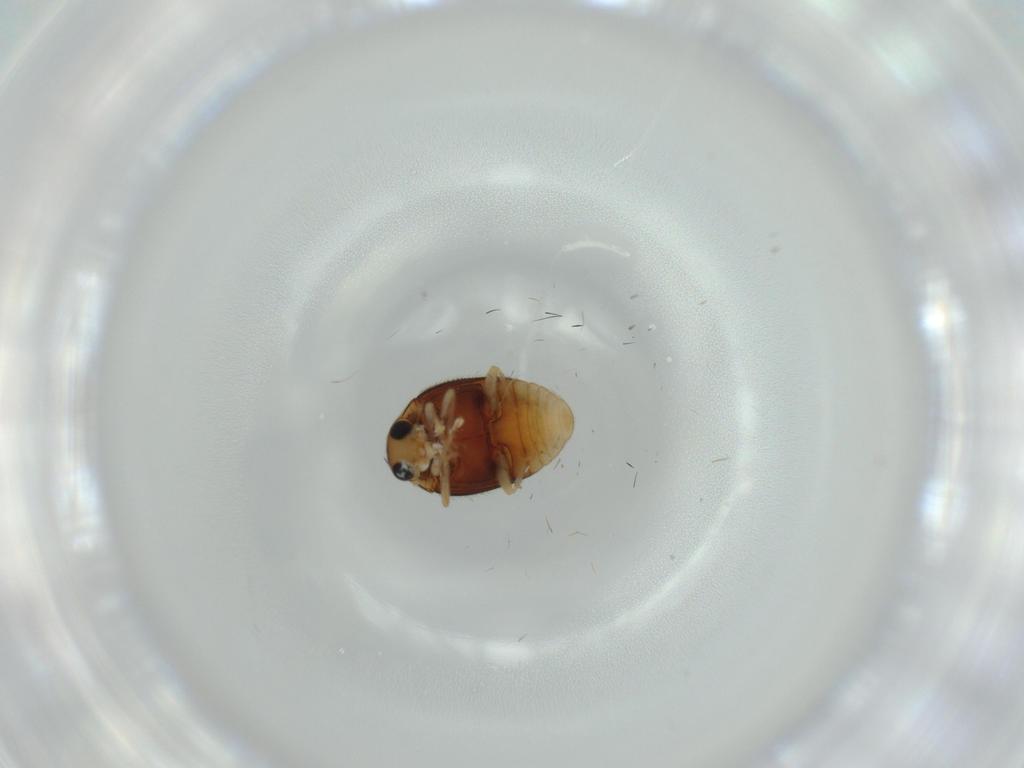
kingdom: Animalia
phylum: Arthropoda
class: Insecta
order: Coleoptera
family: Coccinellidae
